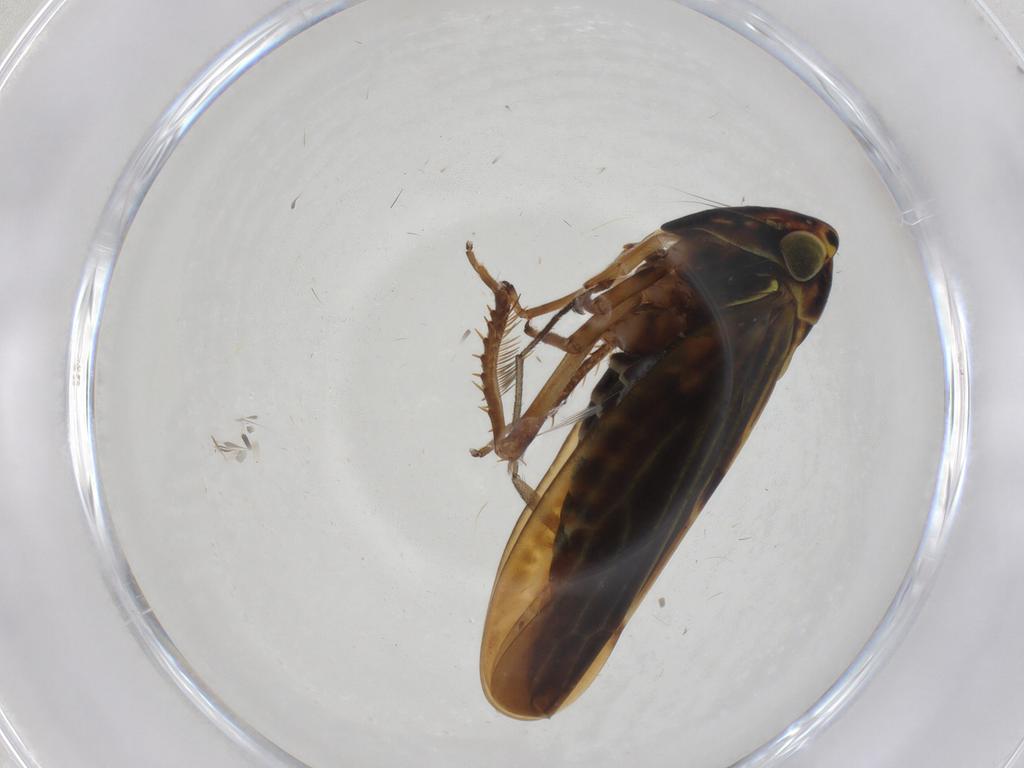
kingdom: Animalia
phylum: Arthropoda
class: Insecta
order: Hemiptera
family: Cicadellidae
